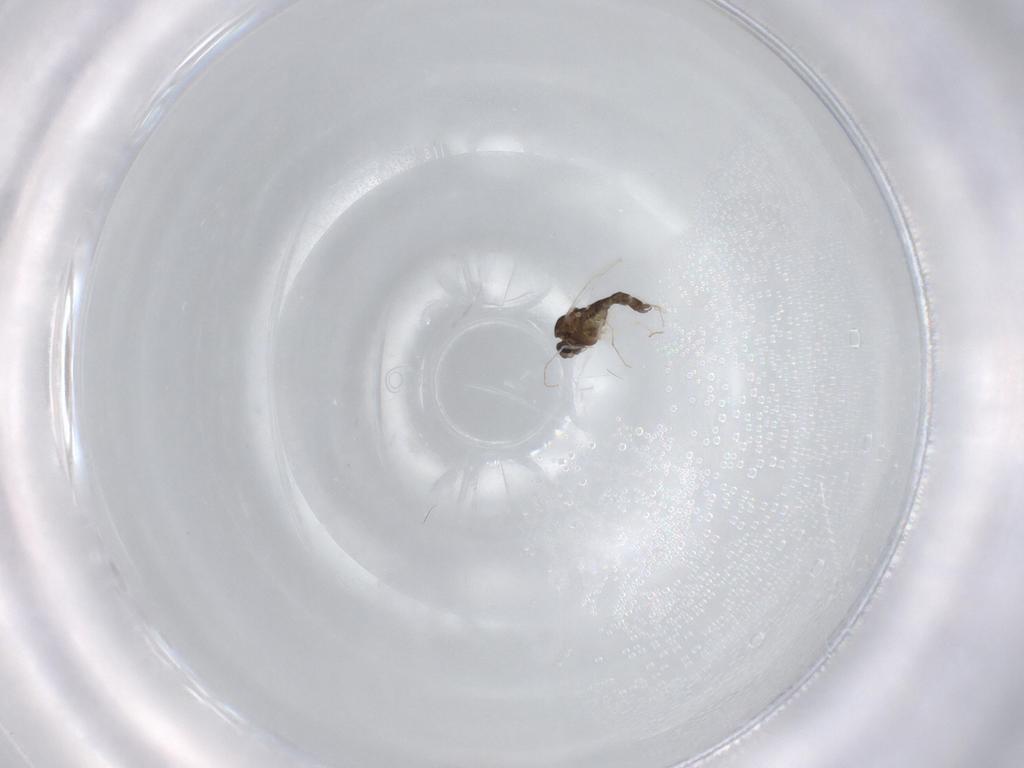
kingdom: Animalia
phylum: Arthropoda
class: Insecta
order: Diptera
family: Chironomidae
